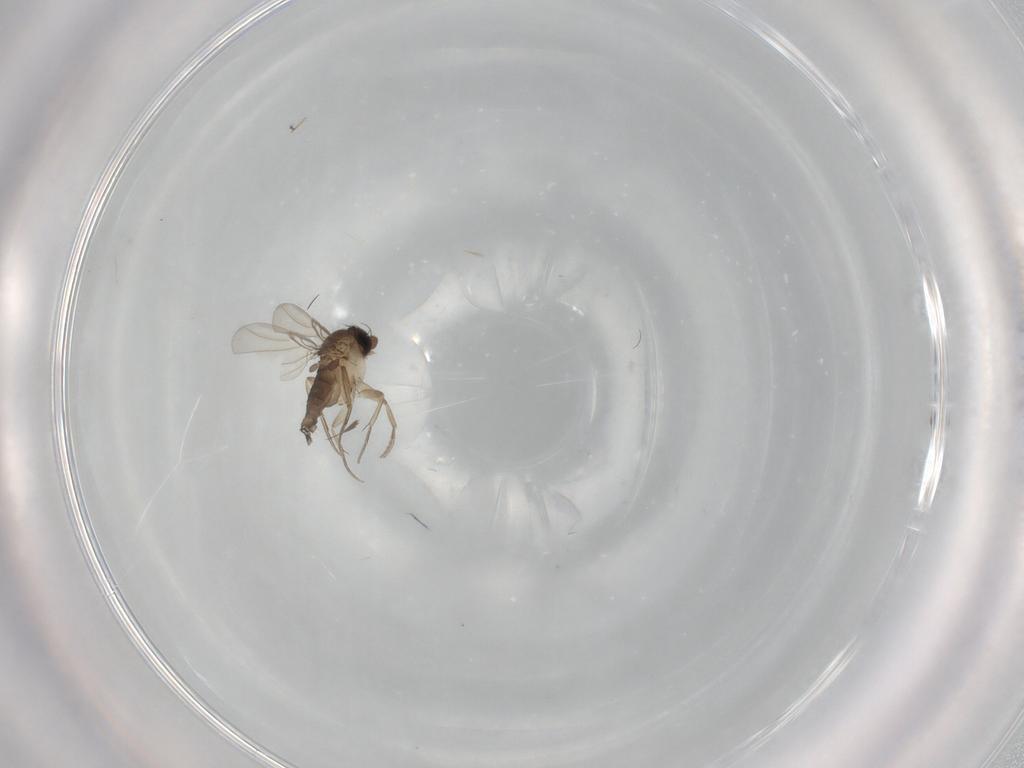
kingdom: Animalia
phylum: Arthropoda
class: Insecta
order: Diptera
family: Phoridae
